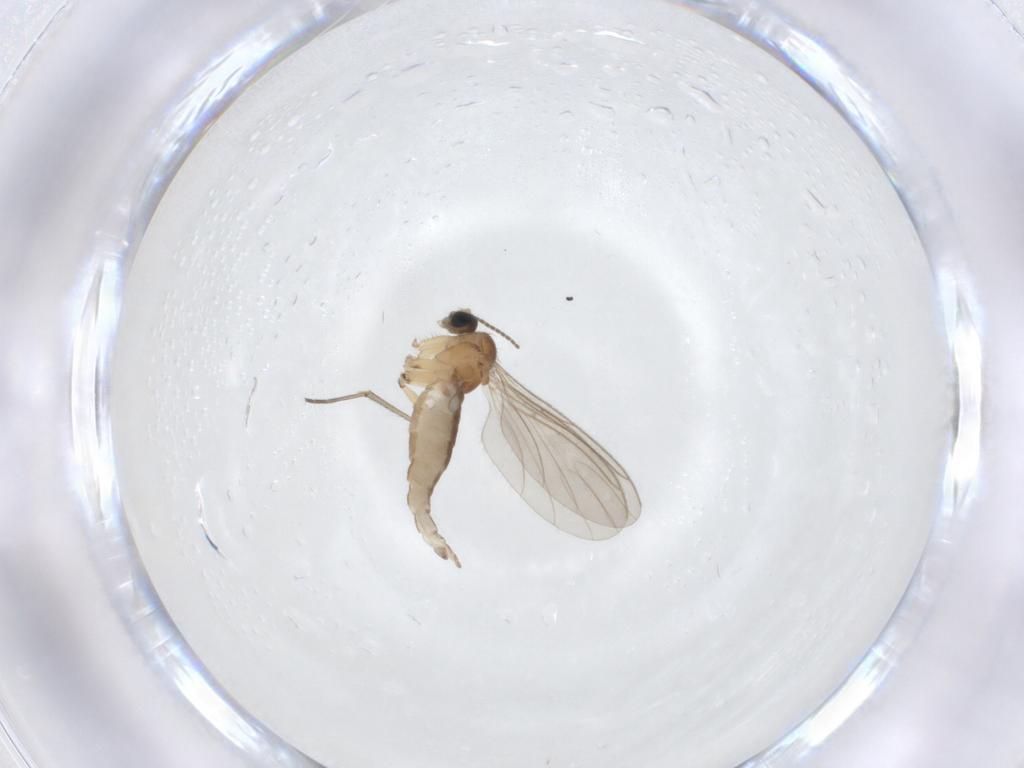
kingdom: Animalia
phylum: Arthropoda
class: Insecta
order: Diptera
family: Sciaridae
